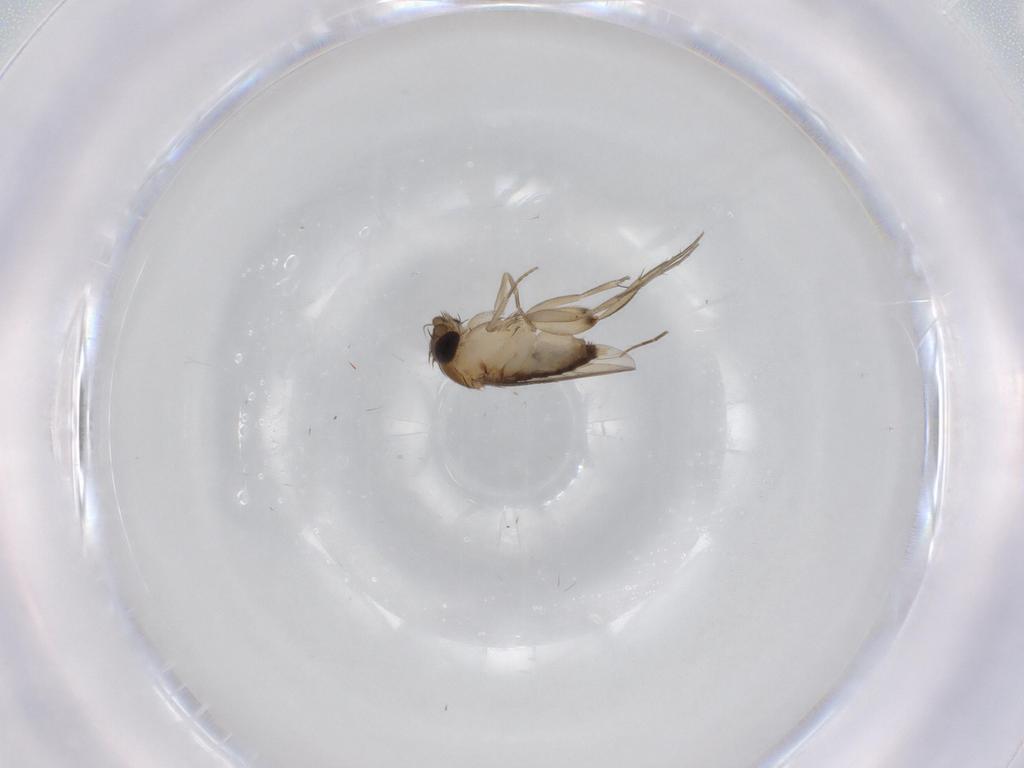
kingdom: Animalia
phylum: Arthropoda
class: Insecta
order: Diptera
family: Phoridae
